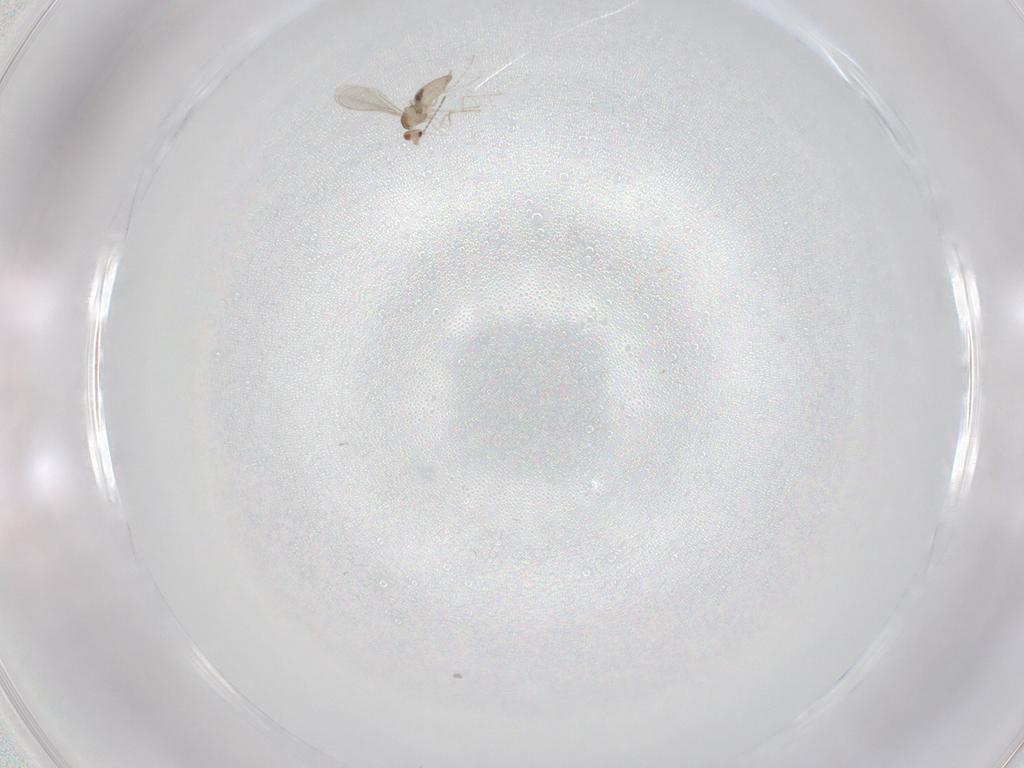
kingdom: Animalia
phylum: Arthropoda
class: Insecta
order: Diptera
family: Cecidomyiidae
